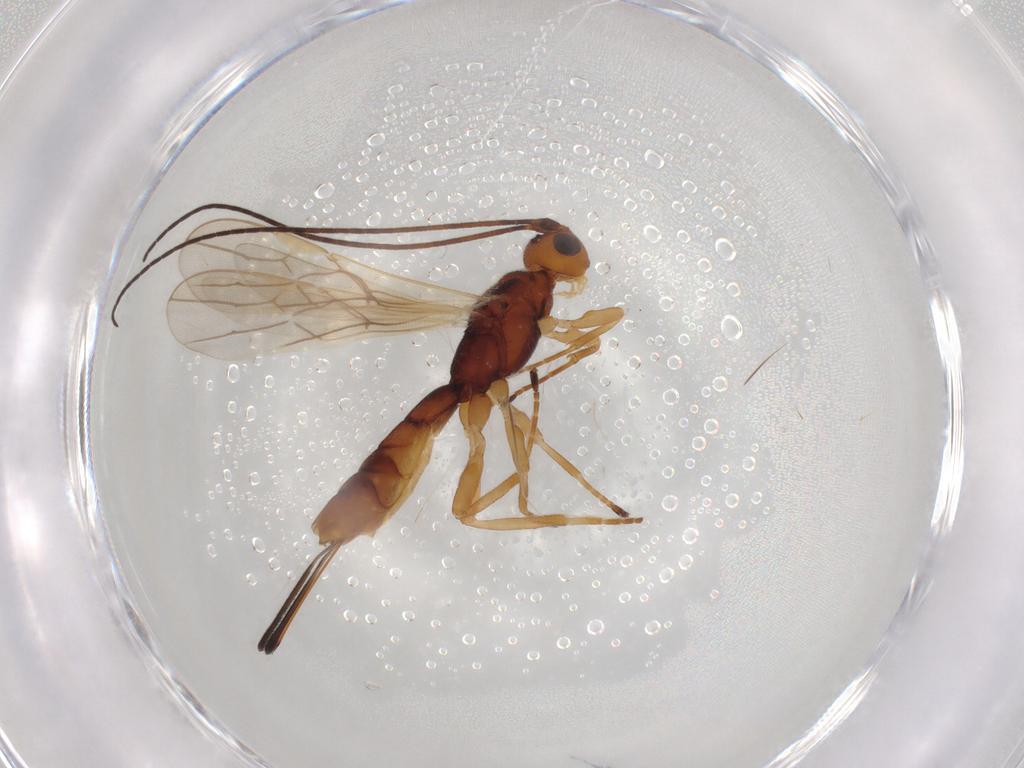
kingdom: Animalia
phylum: Arthropoda
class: Insecta
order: Hymenoptera
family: Braconidae
